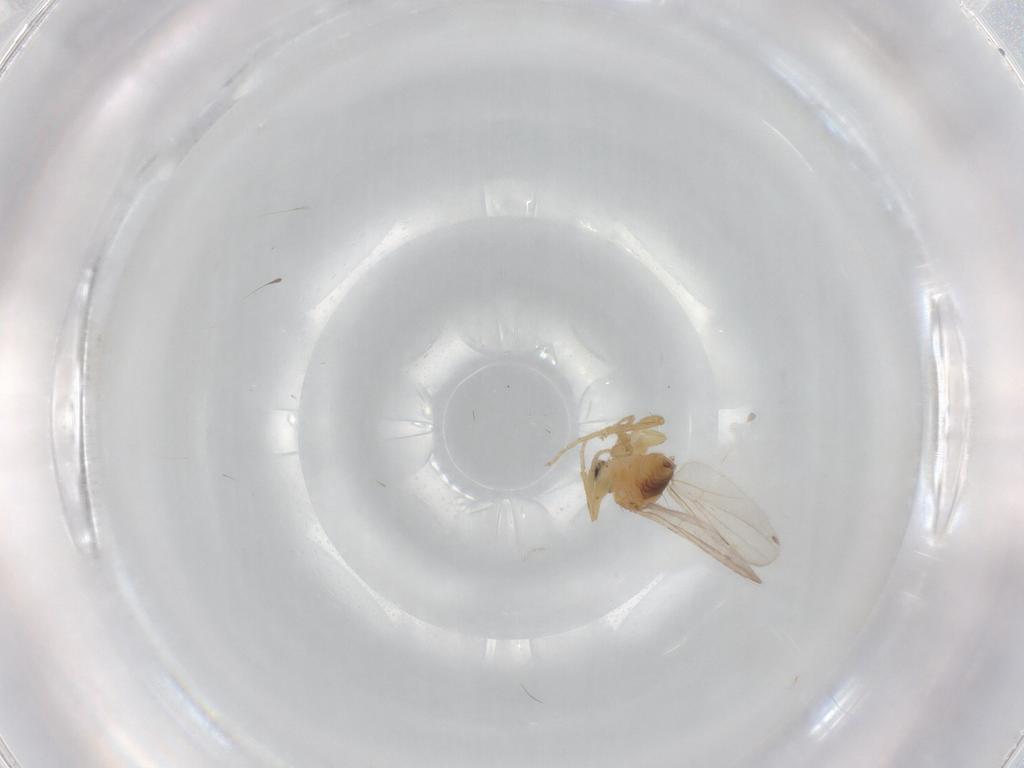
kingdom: Animalia
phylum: Arthropoda
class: Insecta
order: Diptera
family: Hybotidae
